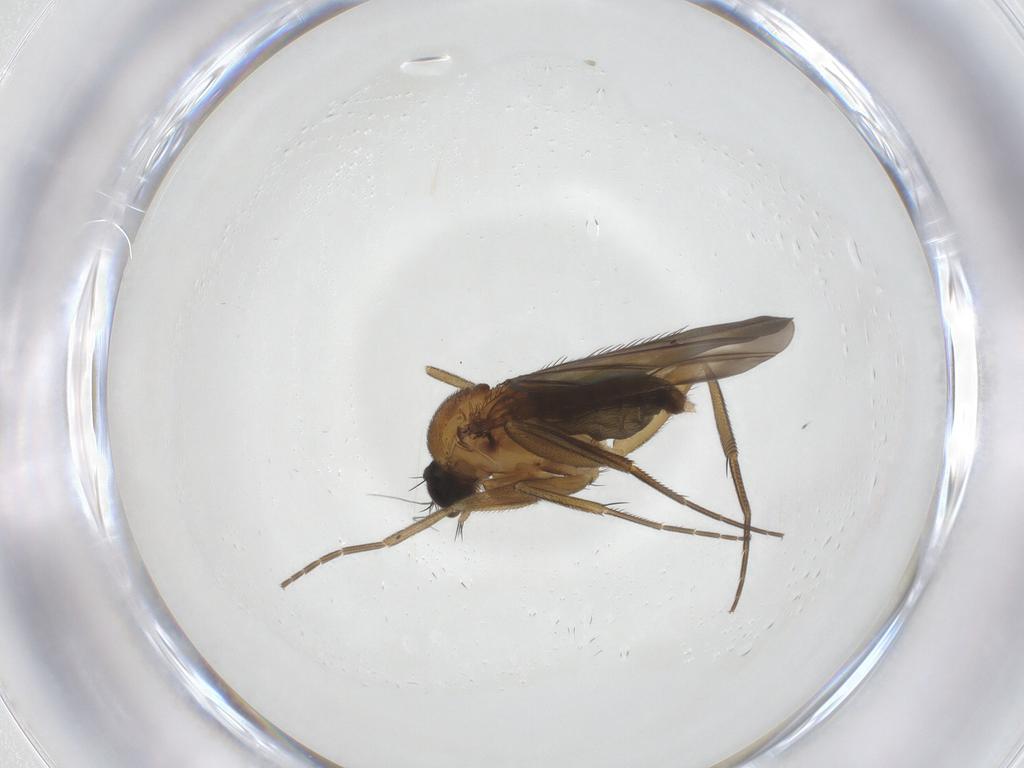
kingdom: Animalia
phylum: Arthropoda
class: Insecta
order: Diptera
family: Phoridae
